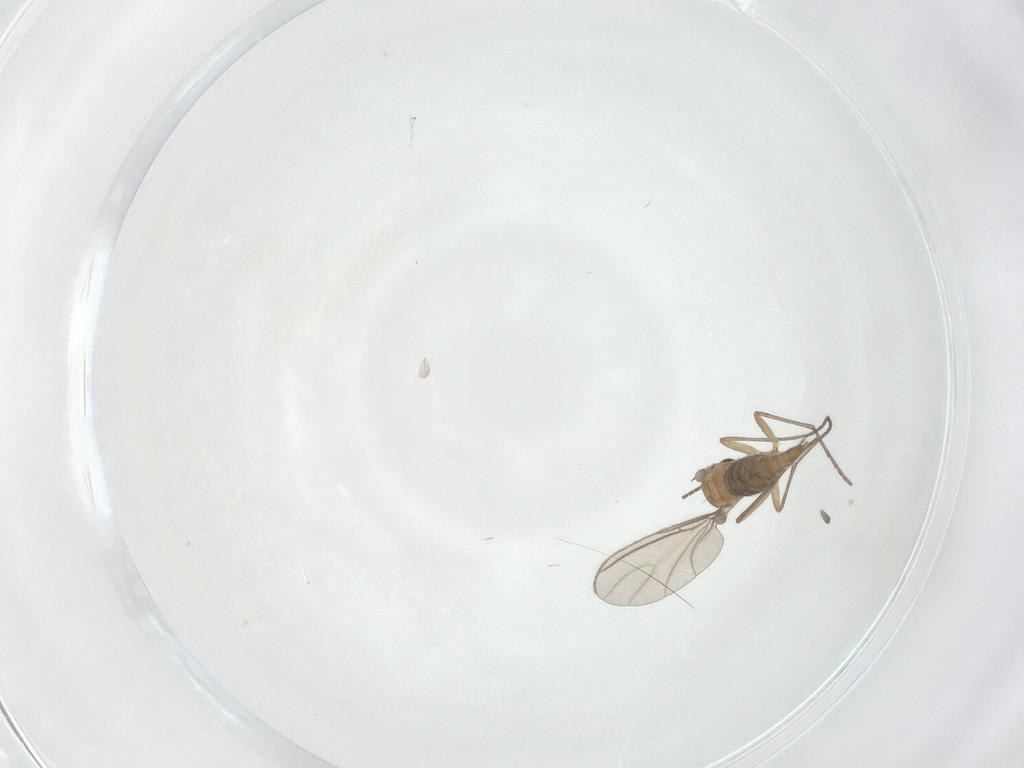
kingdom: Animalia
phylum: Arthropoda
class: Insecta
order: Diptera
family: Sciaridae
